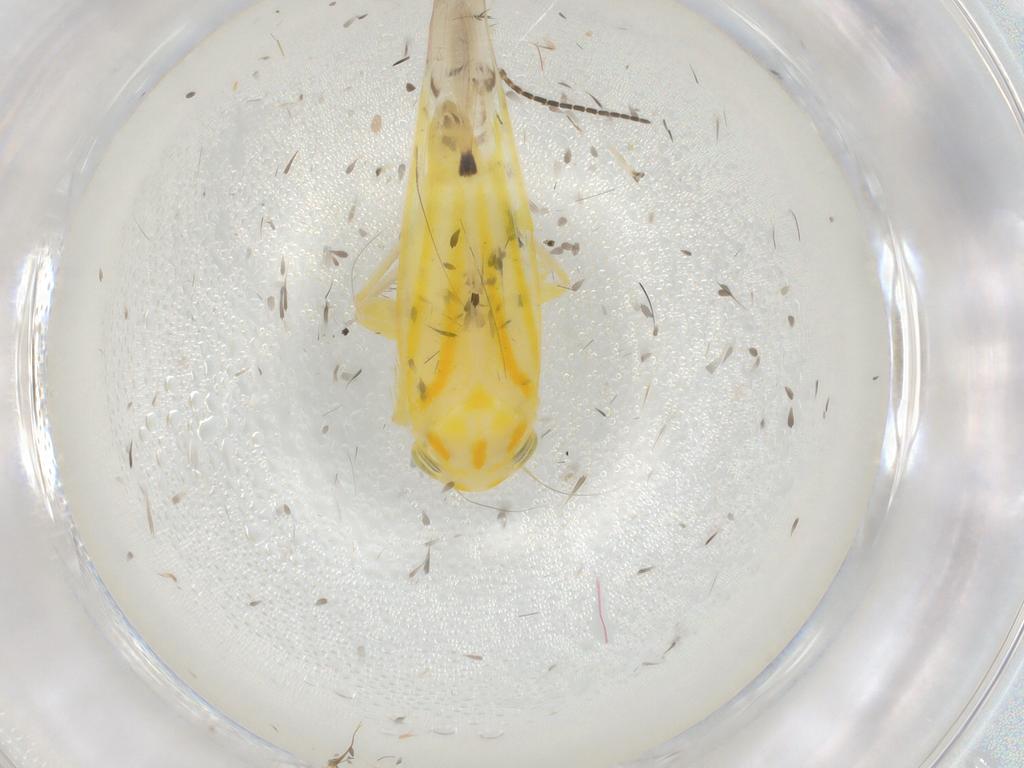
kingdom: Animalia
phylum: Arthropoda
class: Insecta
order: Hemiptera
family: Cicadellidae
